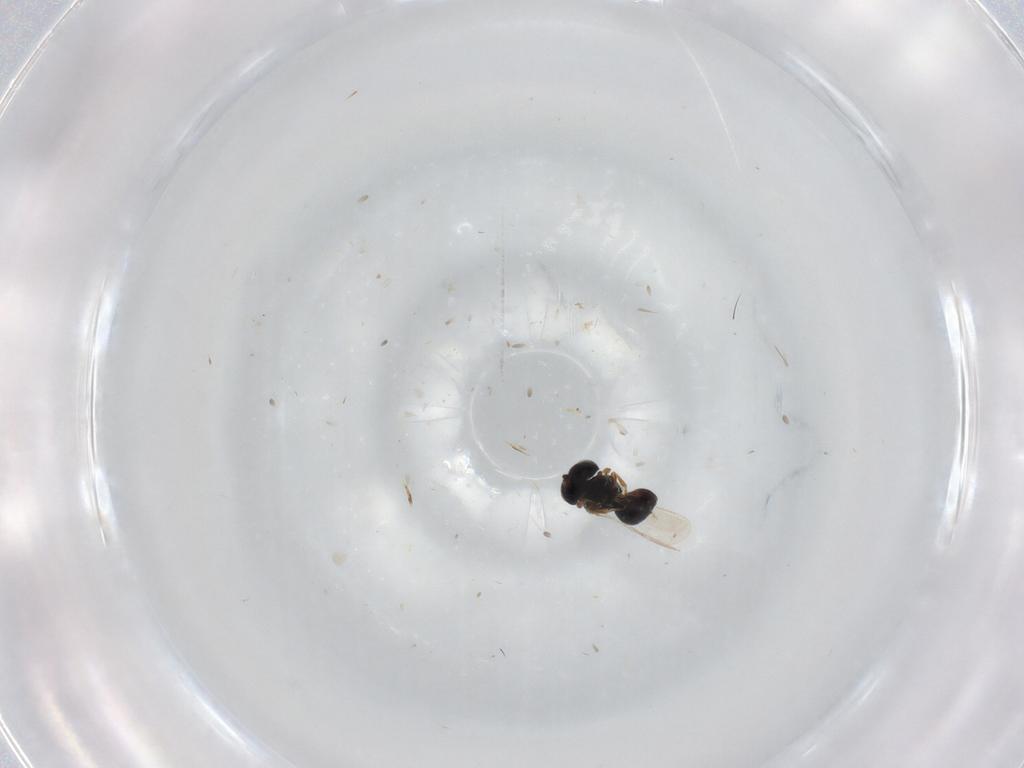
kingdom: Animalia
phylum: Arthropoda
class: Insecta
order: Hymenoptera
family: Scelionidae
